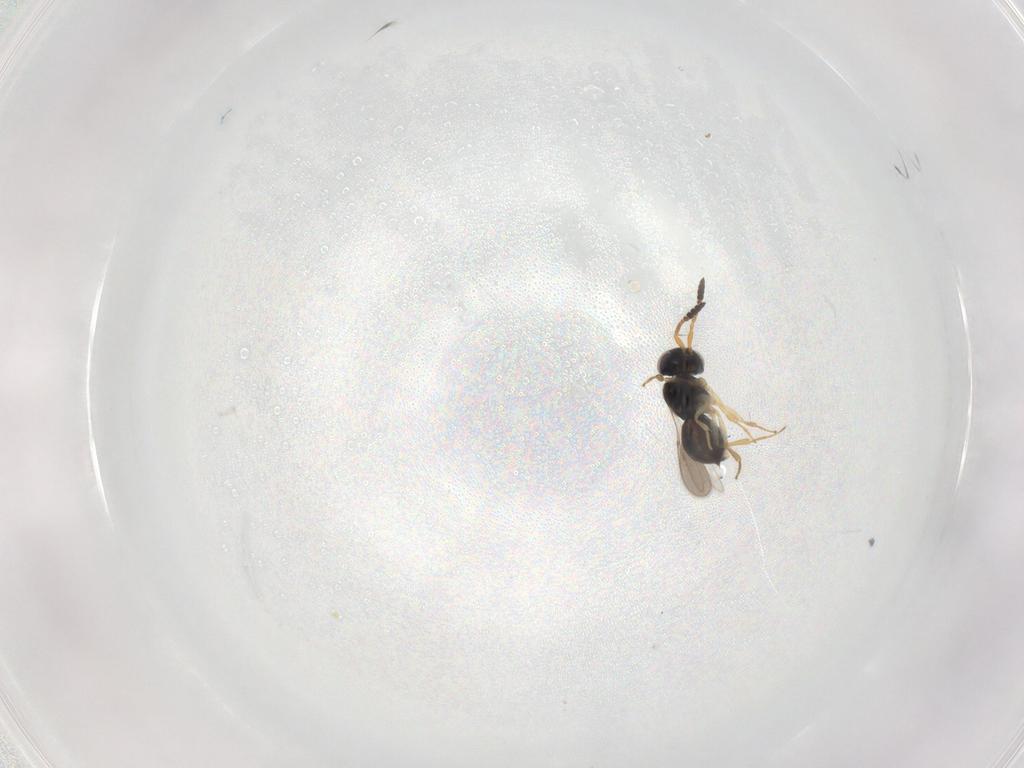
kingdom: Animalia
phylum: Arthropoda
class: Insecta
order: Hymenoptera
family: Scelionidae
